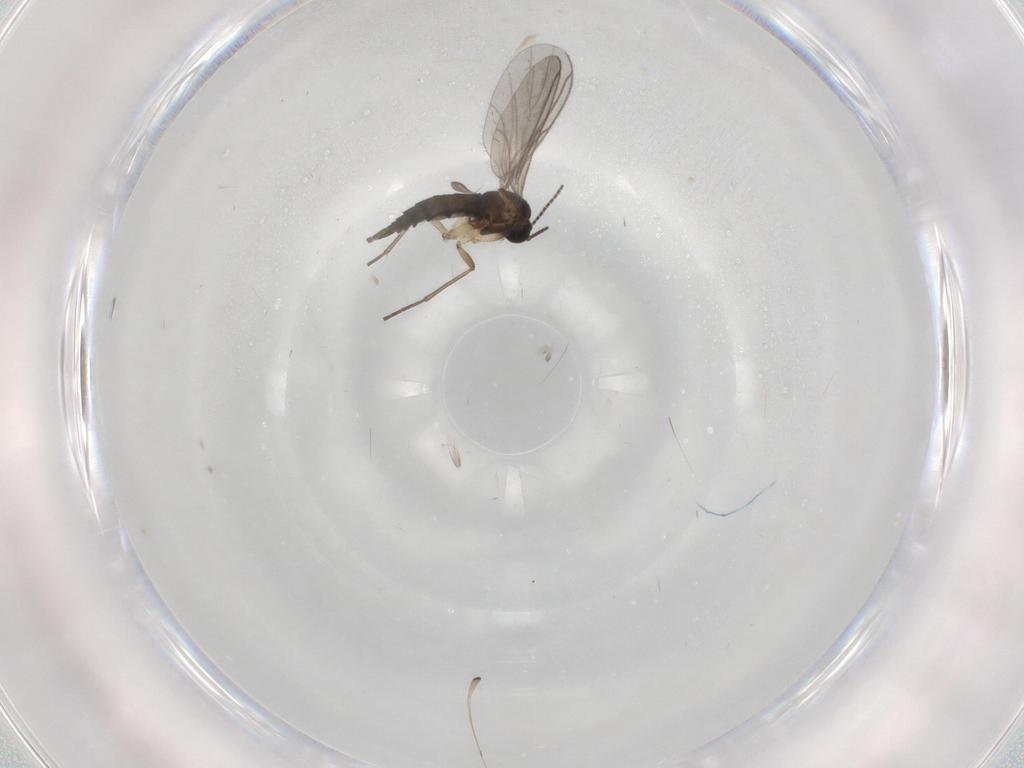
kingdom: Animalia
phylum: Arthropoda
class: Insecta
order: Diptera
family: Sciaridae
